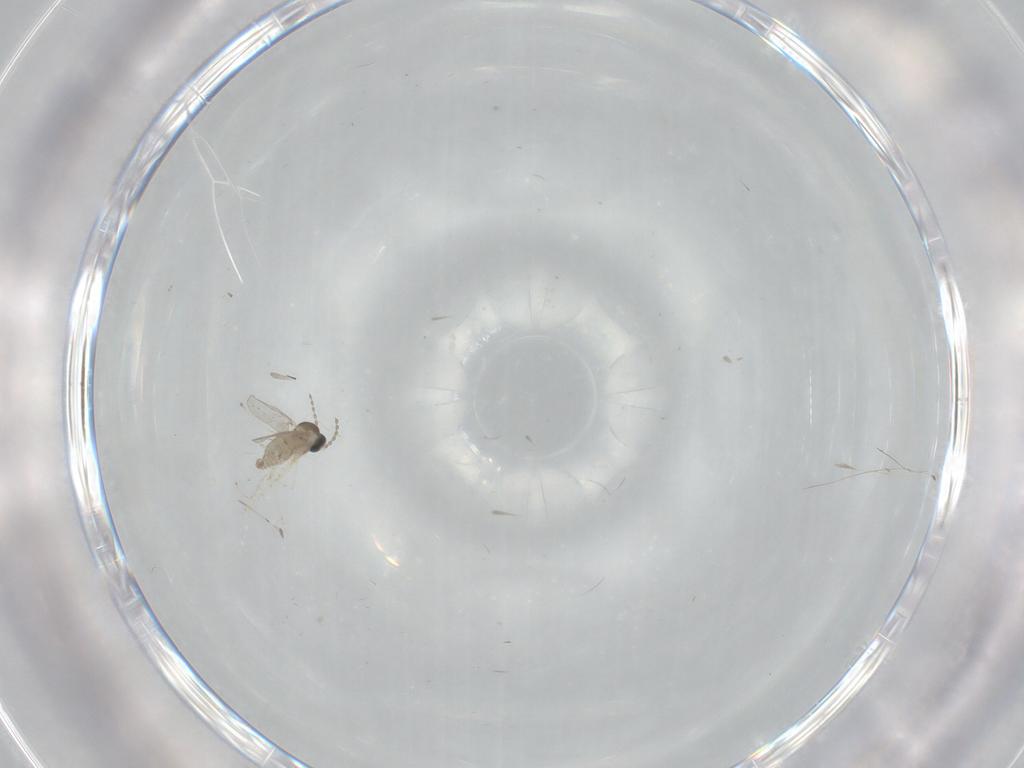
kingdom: Animalia
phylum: Arthropoda
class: Insecta
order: Diptera
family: Cecidomyiidae
